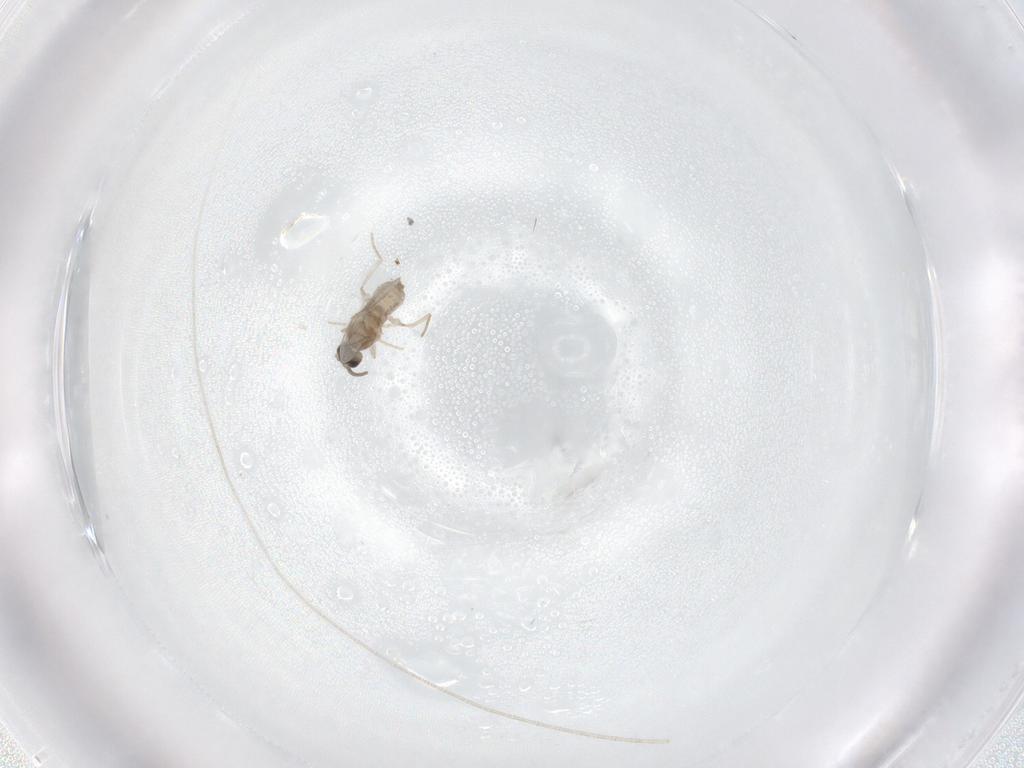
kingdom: Animalia
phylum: Arthropoda
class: Insecta
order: Diptera
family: Cecidomyiidae
